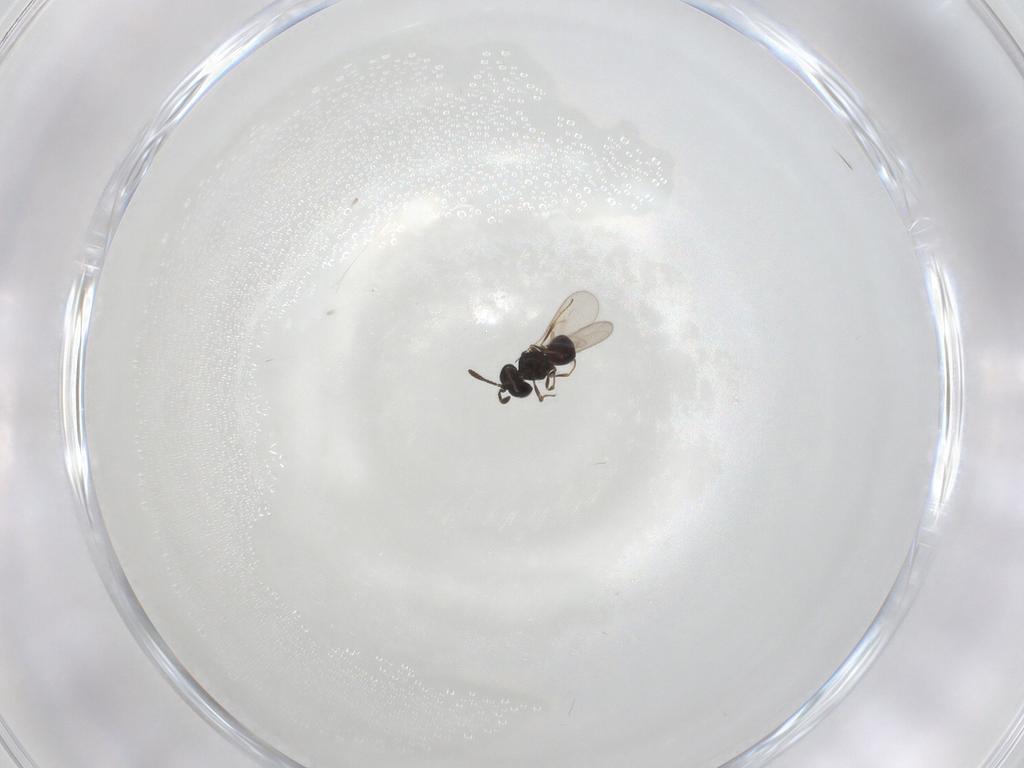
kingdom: Animalia
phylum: Arthropoda
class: Insecta
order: Hymenoptera
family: Scelionidae
